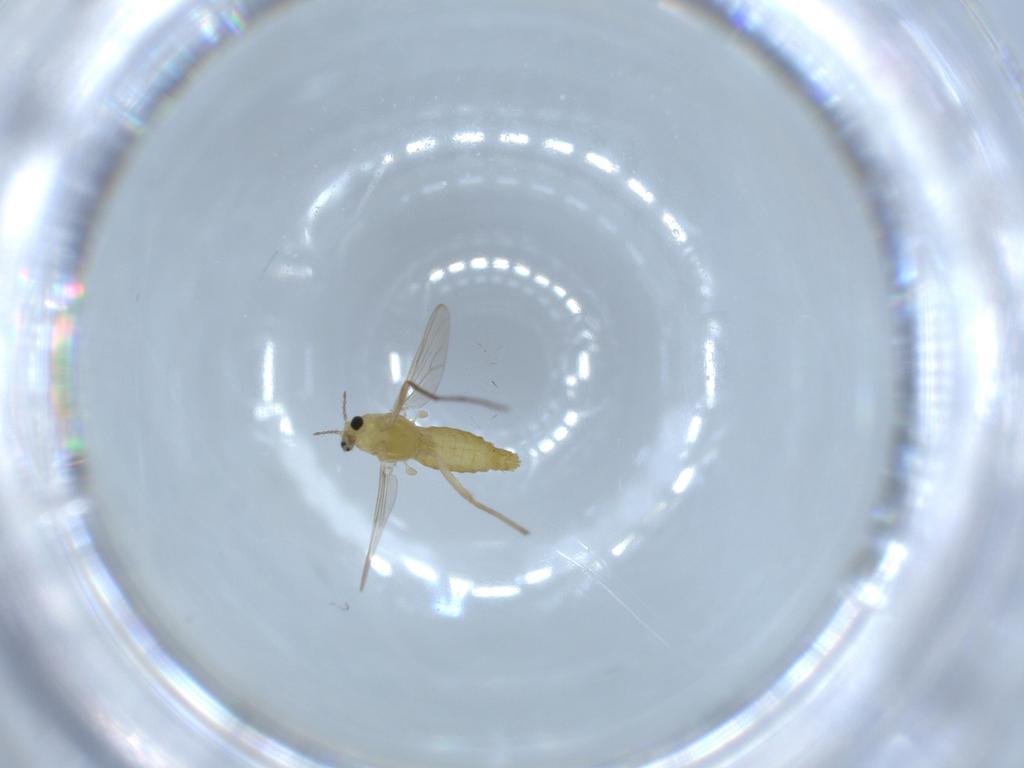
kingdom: Animalia
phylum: Arthropoda
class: Insecta
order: Diptera
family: Chironomidae
